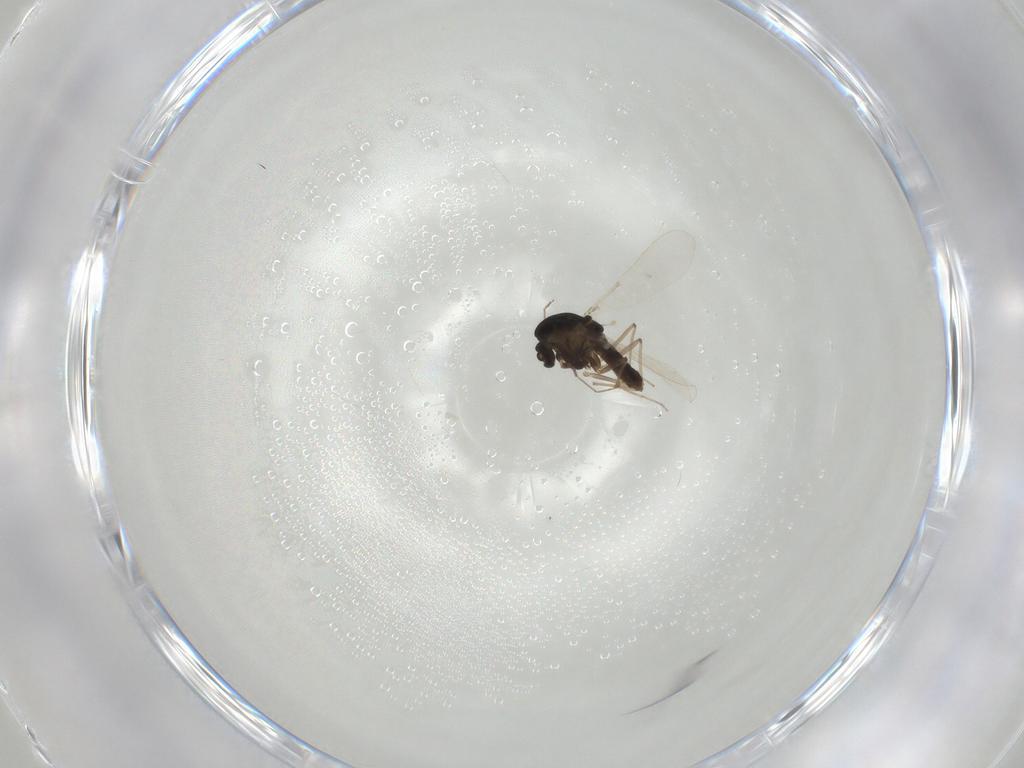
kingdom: Animalia
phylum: Arthropoda
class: Insecta
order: Diptera
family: Chironomidae
